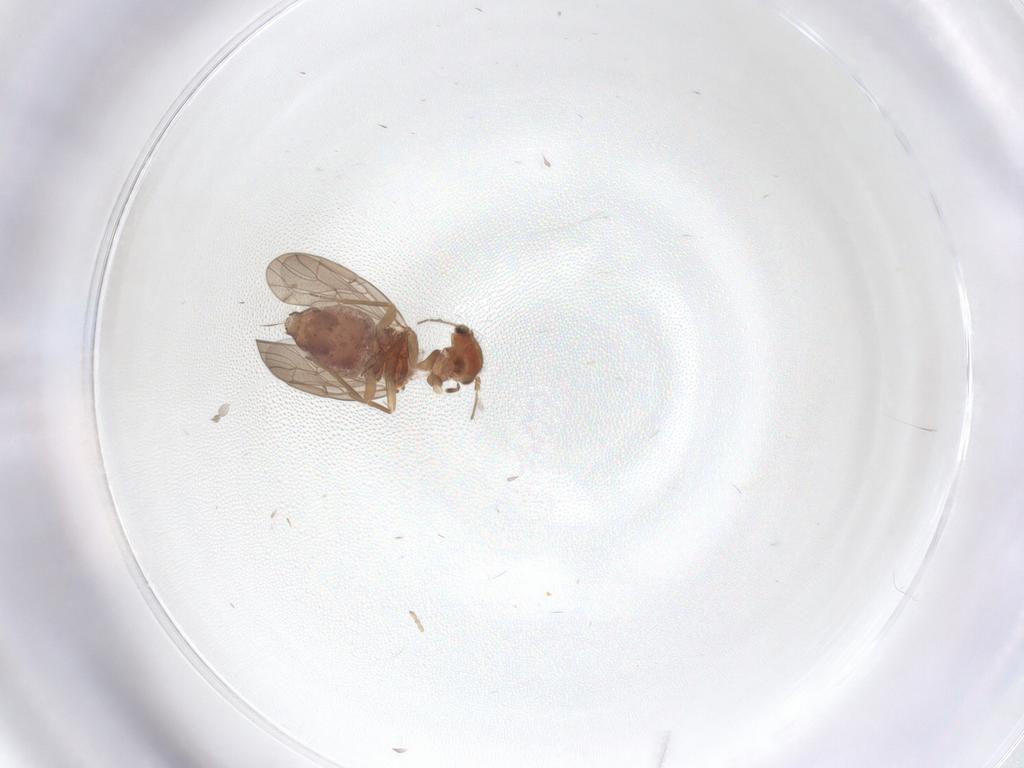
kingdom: Animalia
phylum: Arthropoda
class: Insecta
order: Psocodea
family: Ectopsocidae
